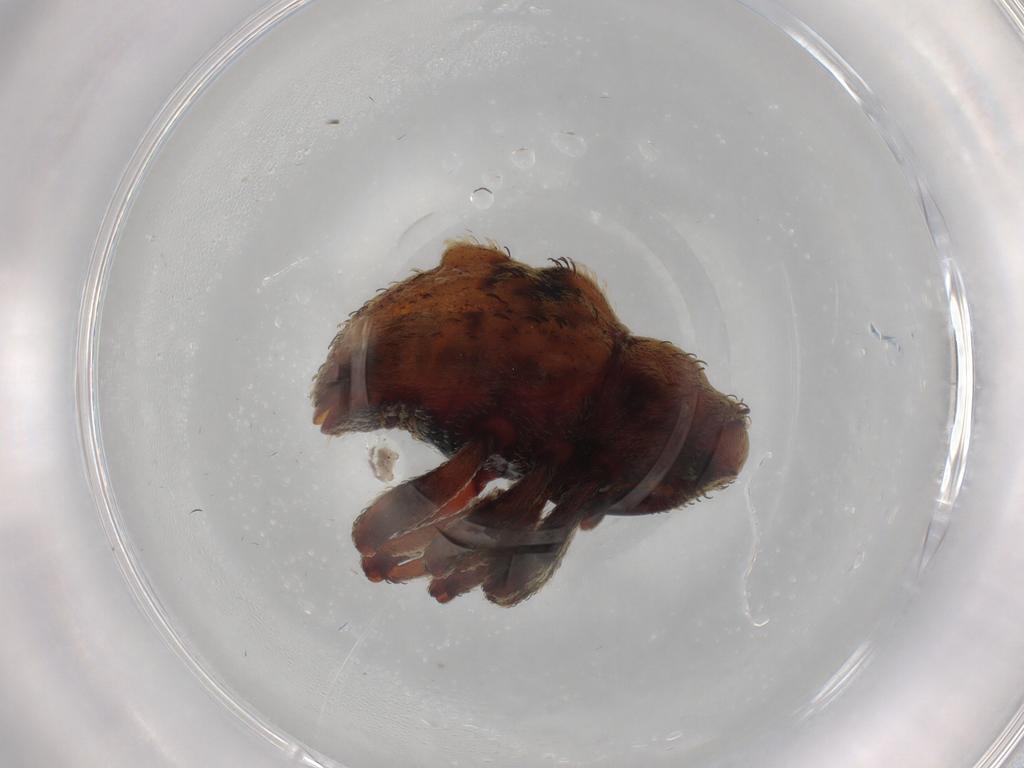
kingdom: Animalia
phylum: Arthropoda
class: Insecta
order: Coleoptera
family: Curculionidae
